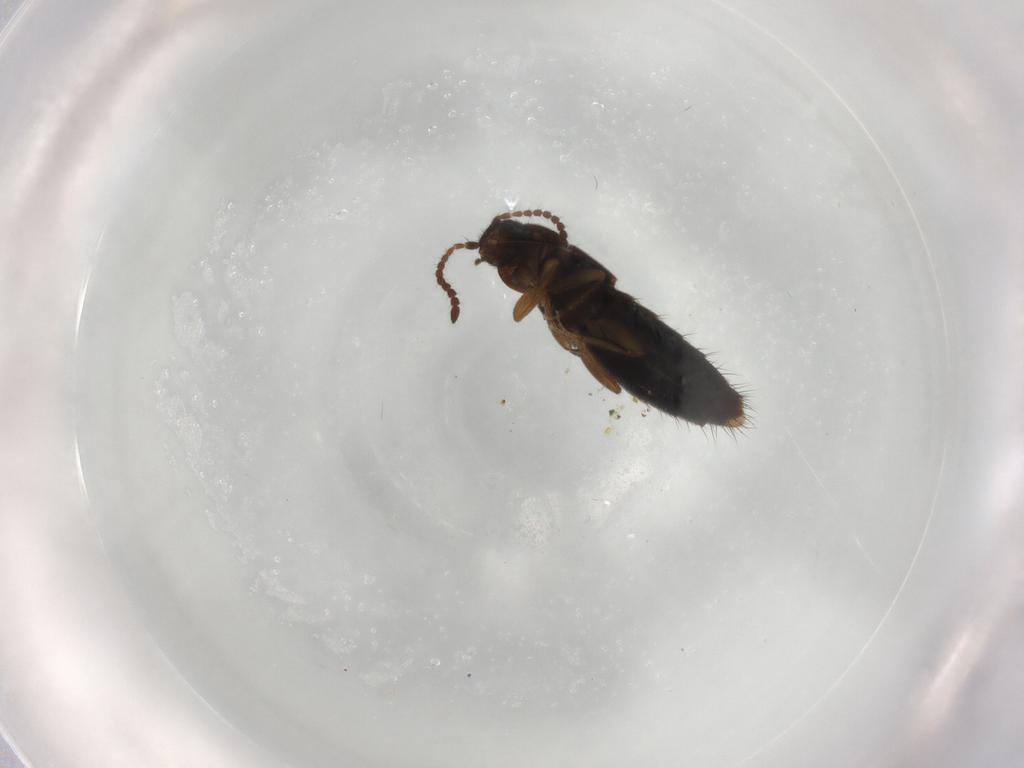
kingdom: Animalia
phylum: Arthropoda
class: Insecta
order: Coleoptera
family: Staphylinidae
